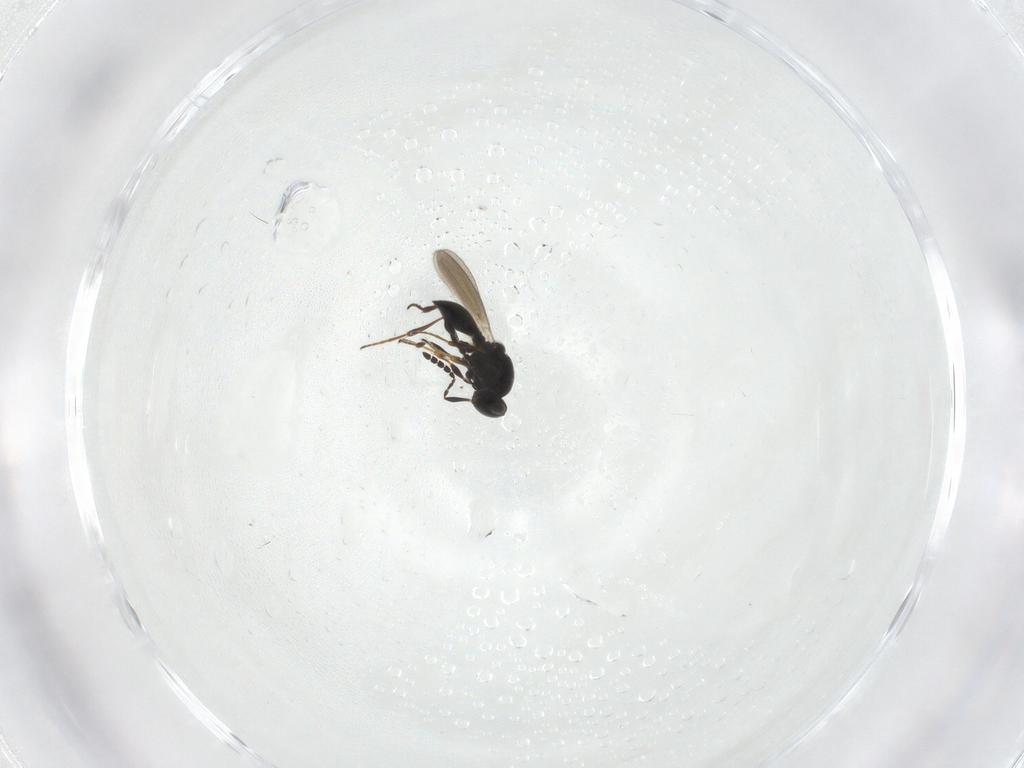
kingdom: Animalia
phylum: Arthropoda
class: Insecta
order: Hymenoptera
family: Platygastridae
